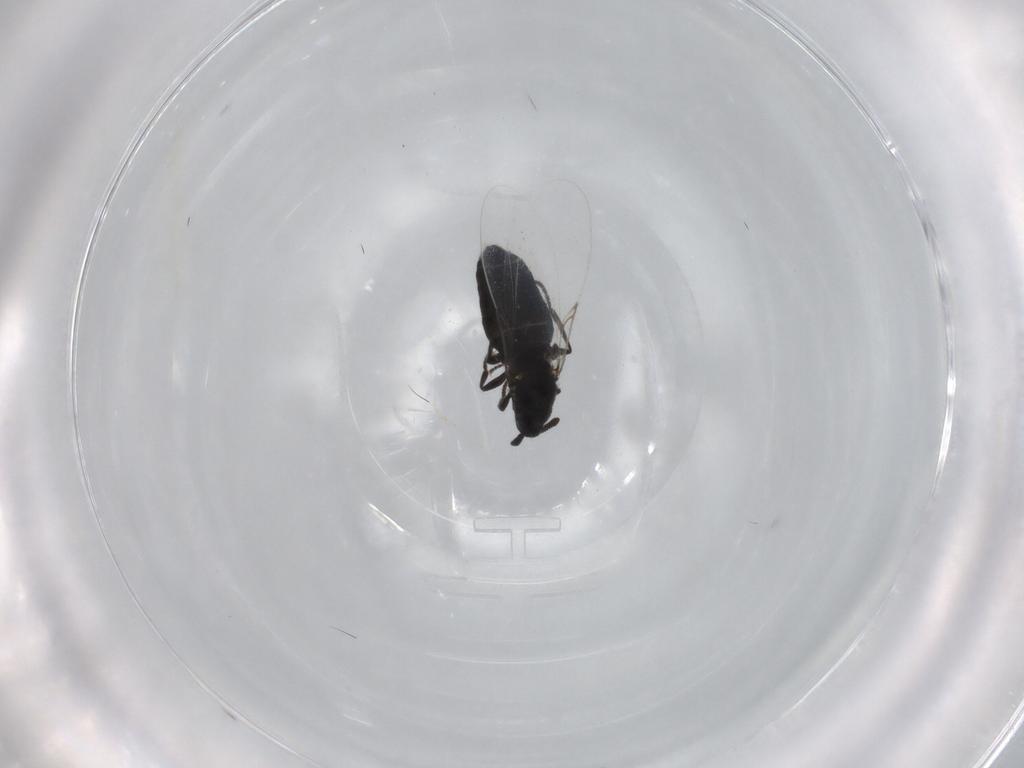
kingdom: Animalia
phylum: Arthropoda
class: Insecta
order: Diptera
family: Scatopsidae
